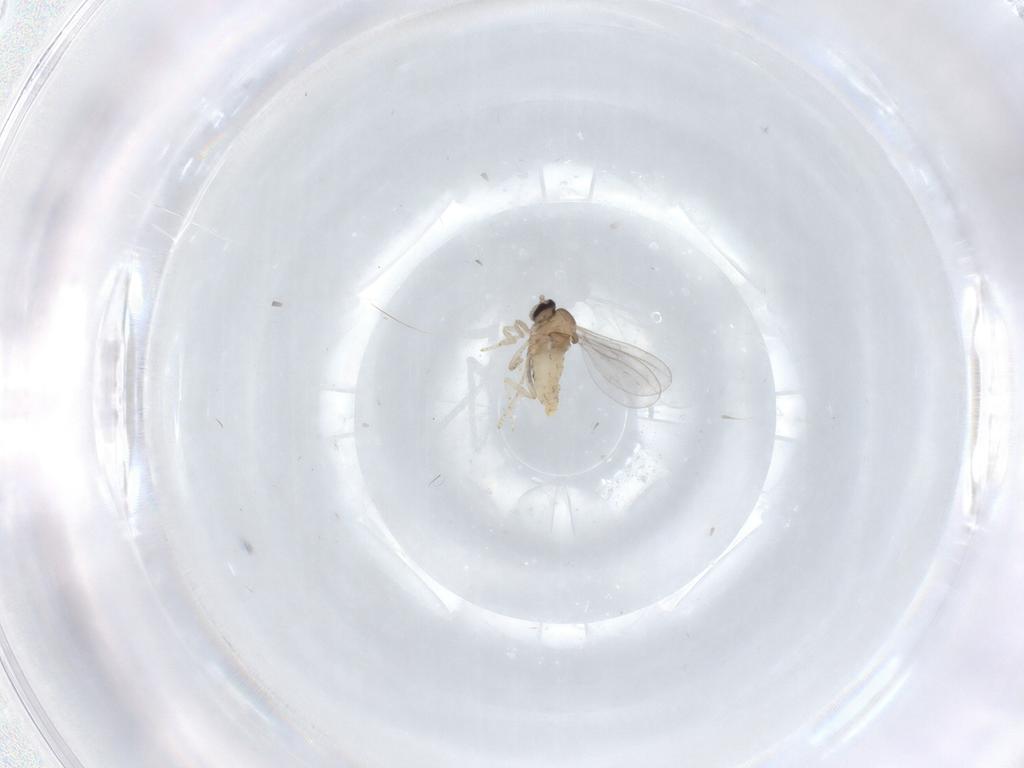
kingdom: Animalia
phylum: Arthropoda
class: Insecta
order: Diptera
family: Cecidomyiidae
